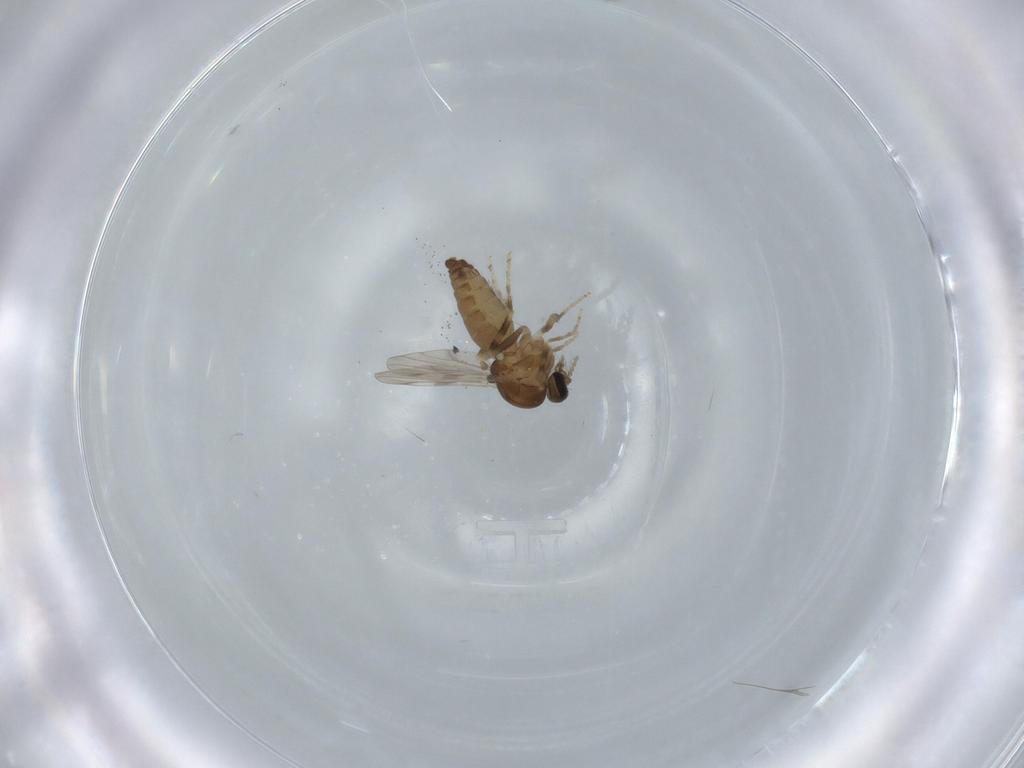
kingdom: Animalia
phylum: Arthropoda
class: Insecta
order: Diptera
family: Ceratopogonidae
